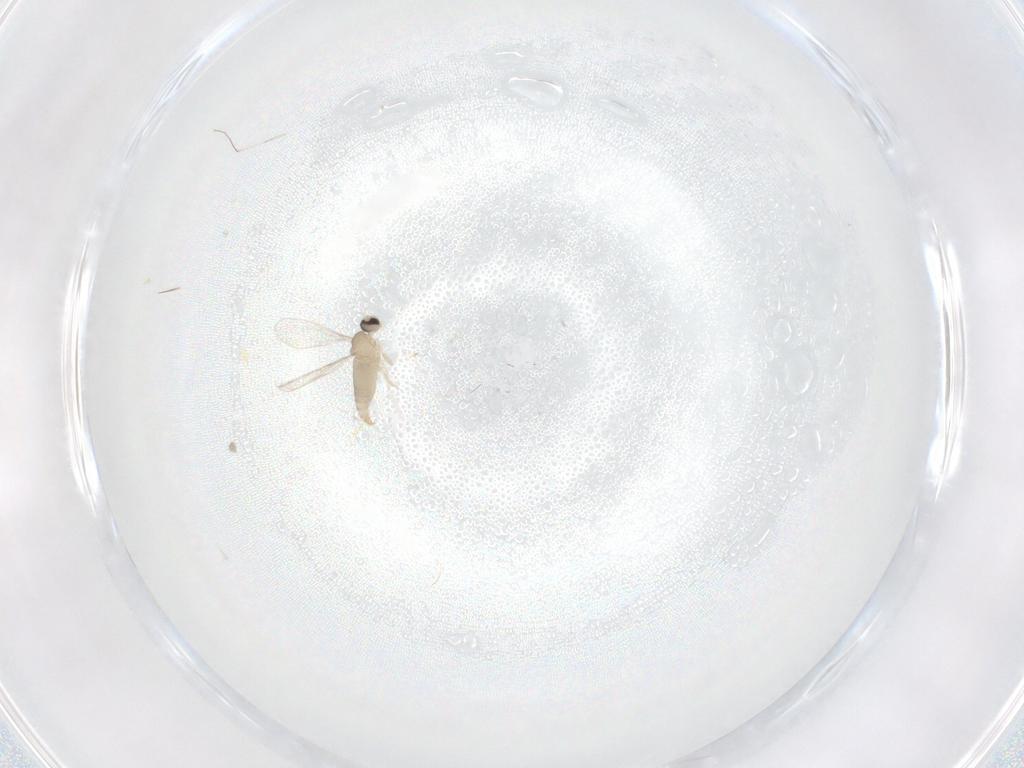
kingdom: Animalia
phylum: Arthropoda
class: Insecta
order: Diptera
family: Cecidomyiidae
